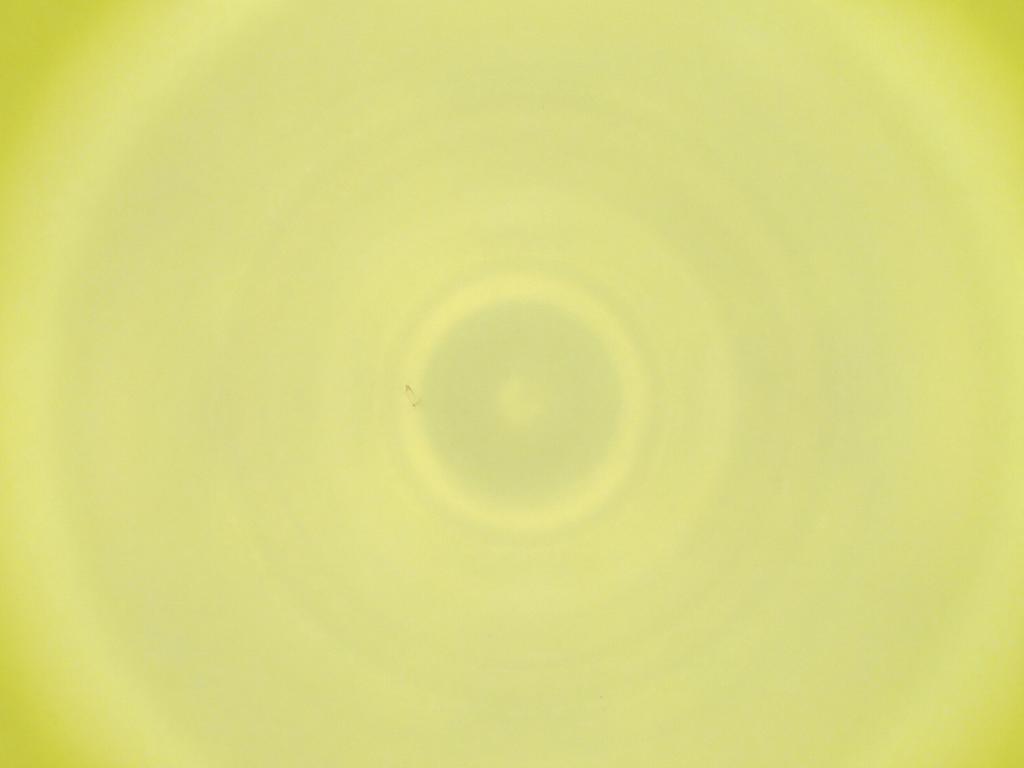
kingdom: Animalia
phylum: Arthropoda
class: Insecta
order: Diptera
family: Cecidomyiidae
